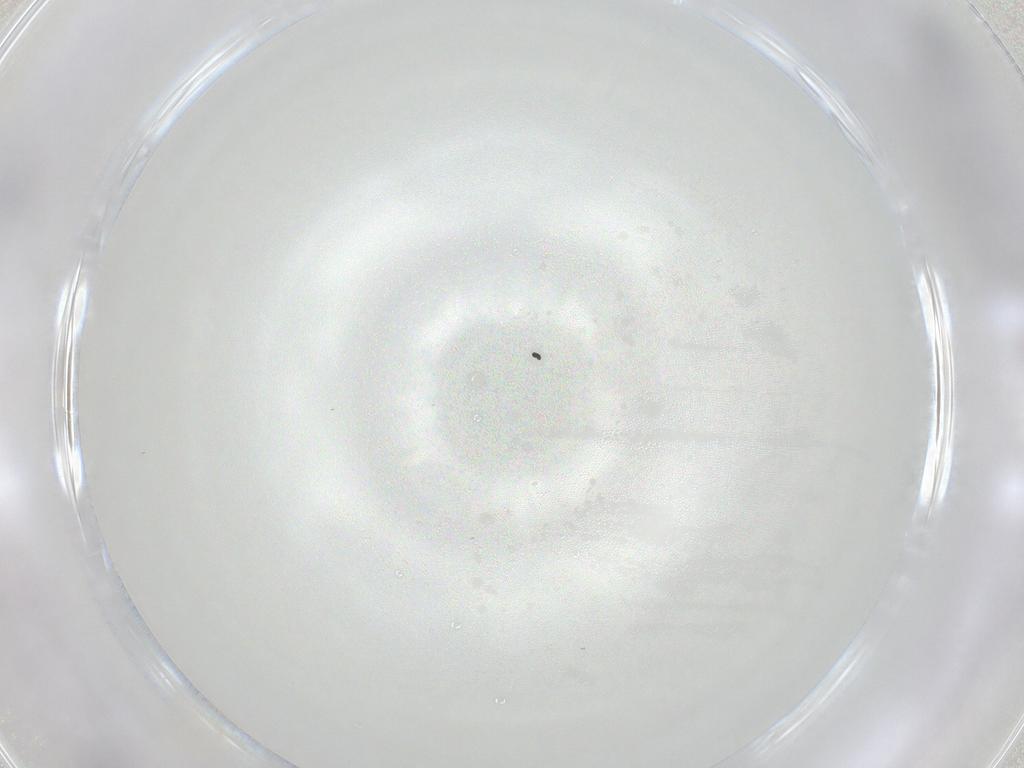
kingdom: Animalia
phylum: Arthropoda
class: Arachnida
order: Trombidiformes
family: Erythraeidae
